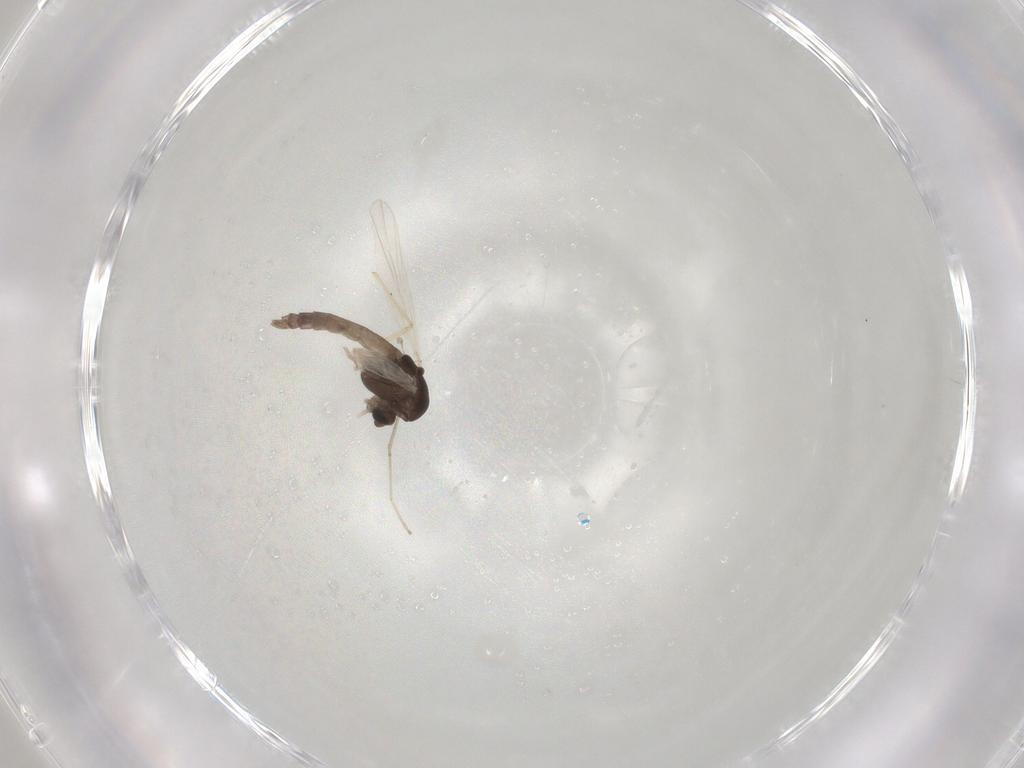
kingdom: Animalia
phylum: Arthropoda
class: Insecta
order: Diptera
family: Chironomidae
